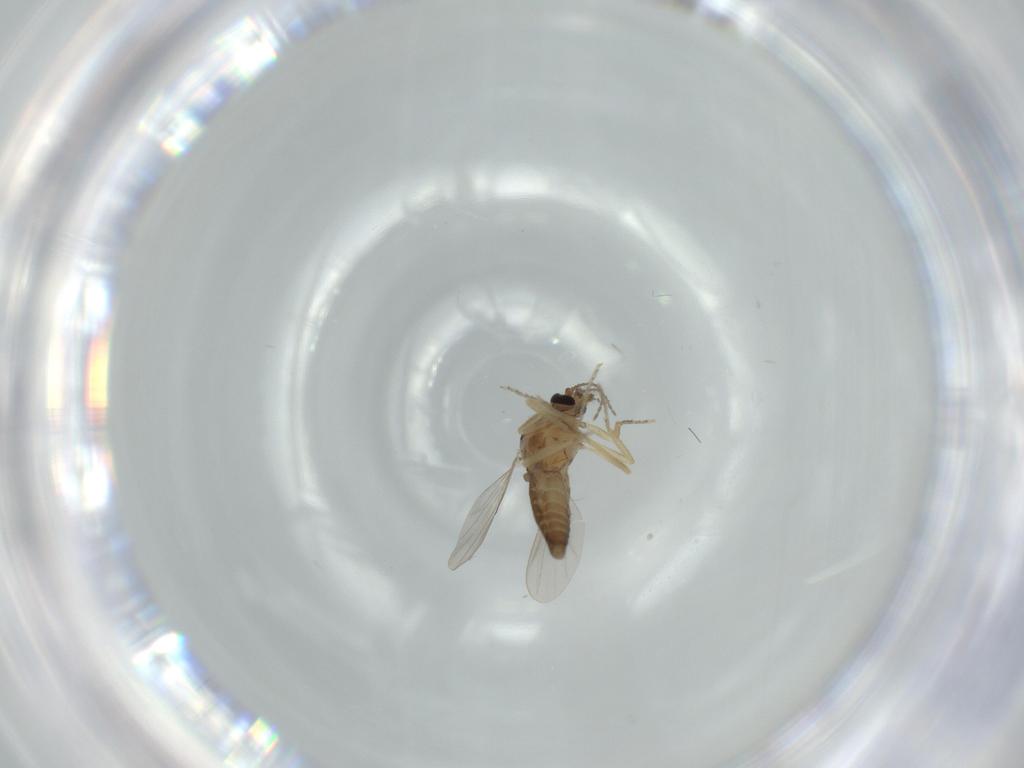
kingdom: Animalia
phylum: Arthropoda
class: Insecta
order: Diptera
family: Ceratopogonidae
